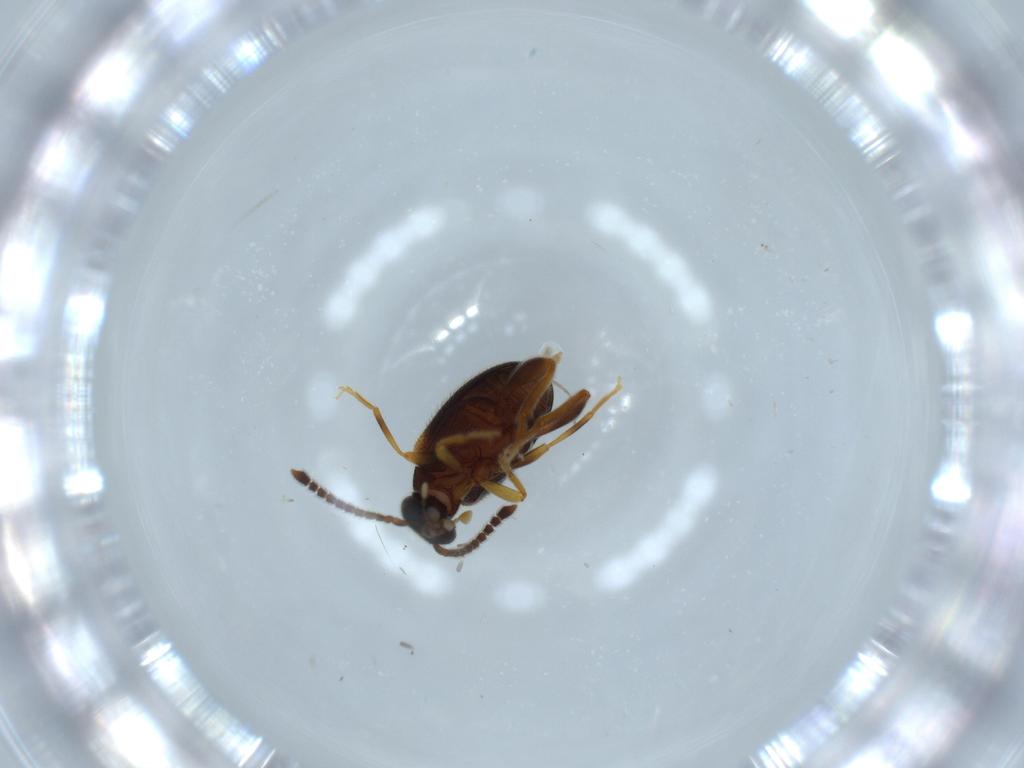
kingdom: Animalia
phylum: Arthropoda
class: Insecta
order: Coleoptera
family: Aderidae
